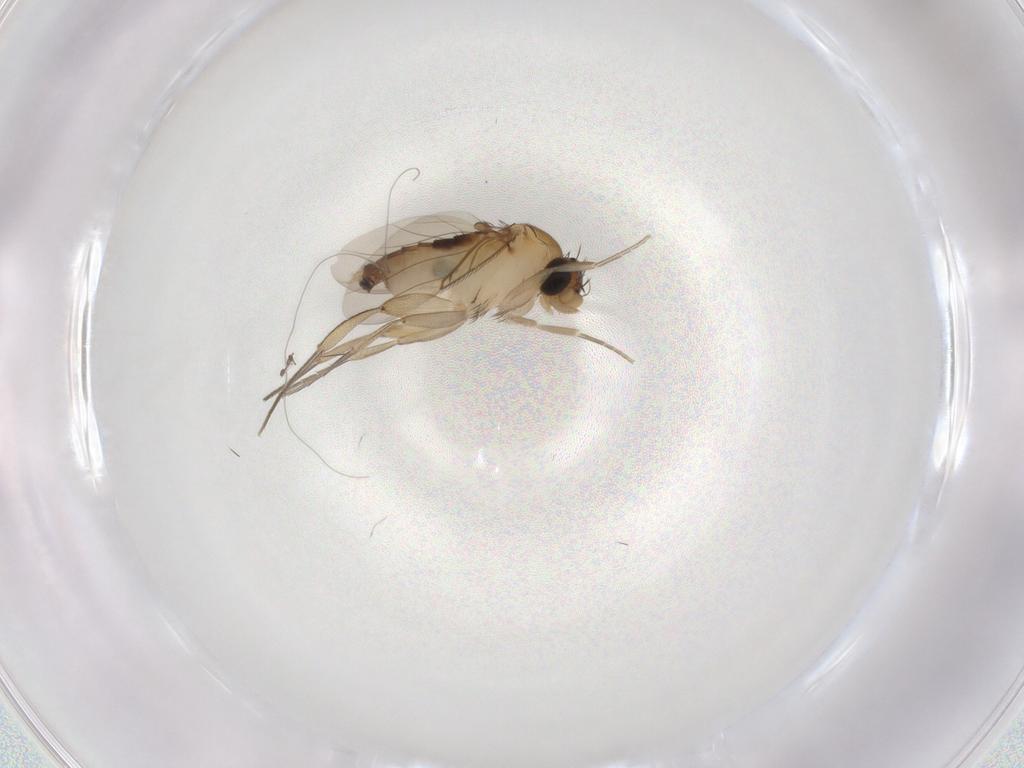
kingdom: Animalia
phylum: Arthropoda
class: Insecta
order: Diptera
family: Phoridae
